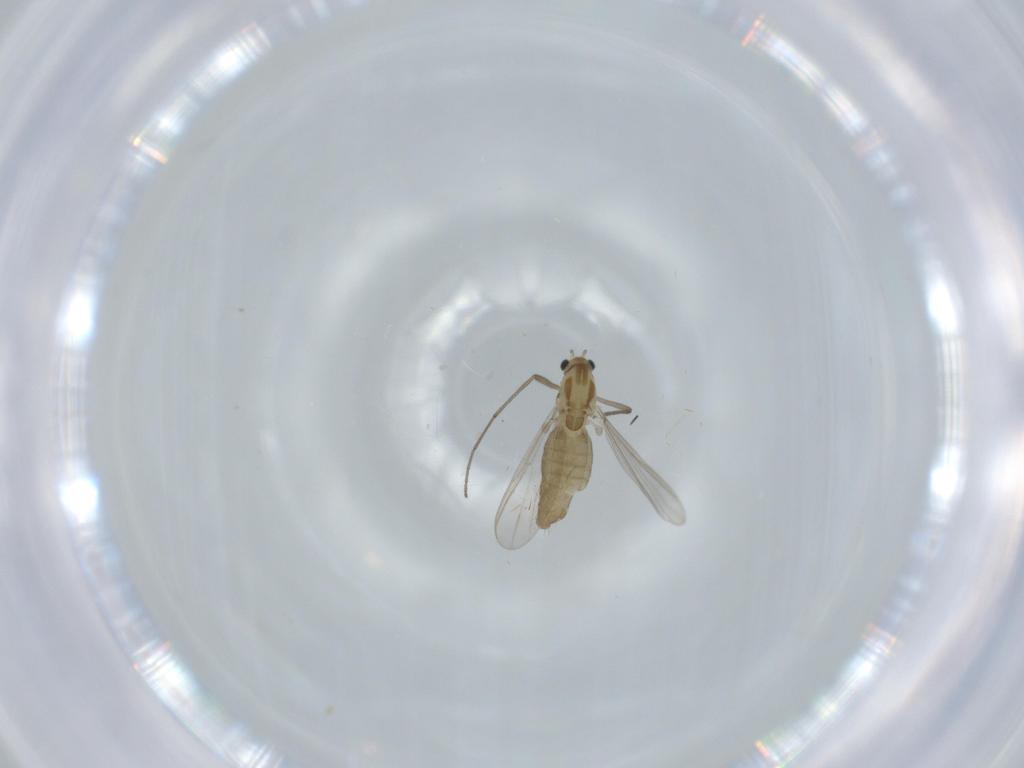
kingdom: Animalia
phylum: Arthropoda
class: Insecta
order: Diptera
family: Chironomidae
